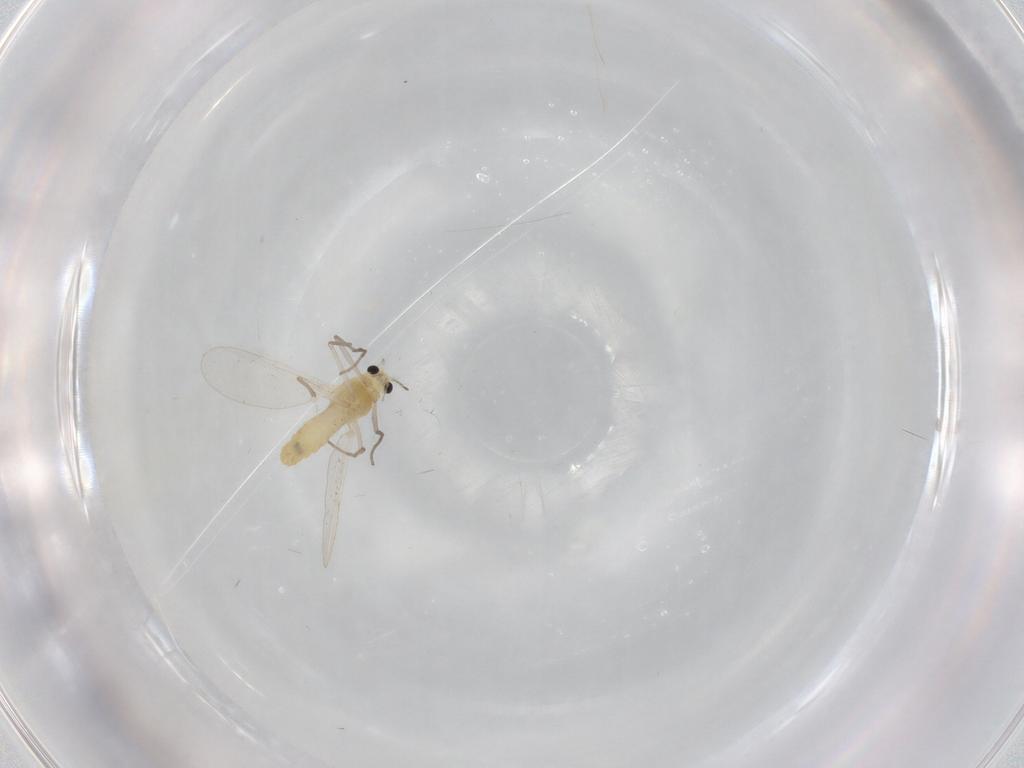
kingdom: Animalia
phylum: Arthropoda
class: Insecta
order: Diptera
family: Chironomidae
